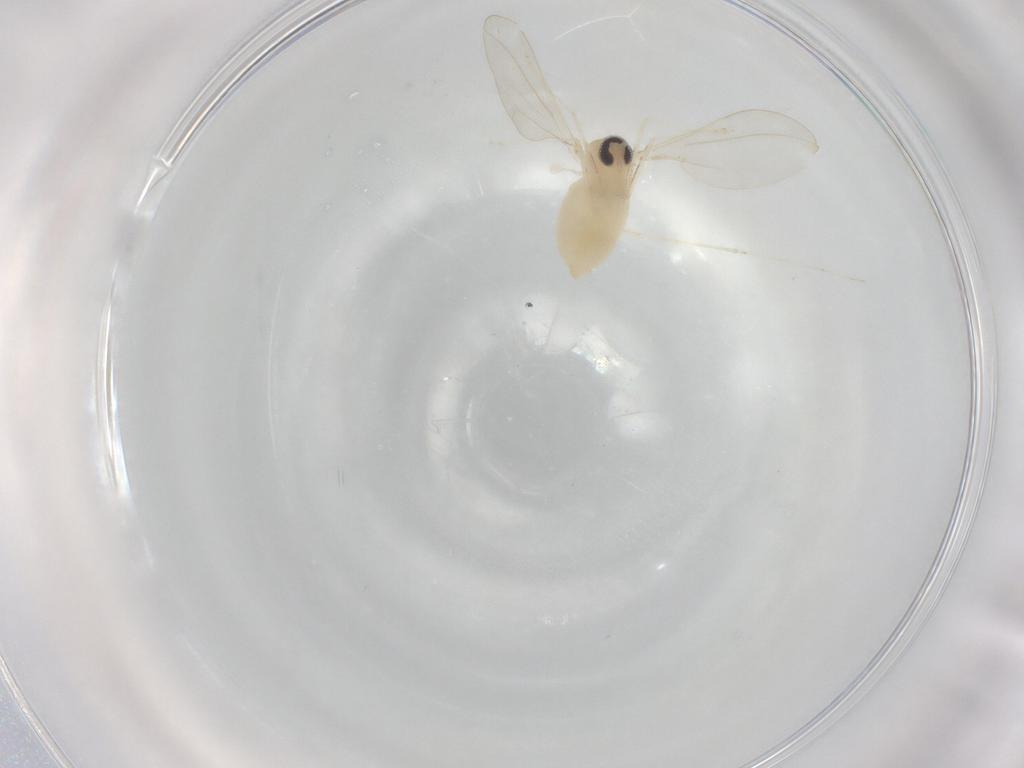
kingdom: Animalia
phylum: Arthropoda
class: Insecta
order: Diptera
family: Cecidomyiidae
